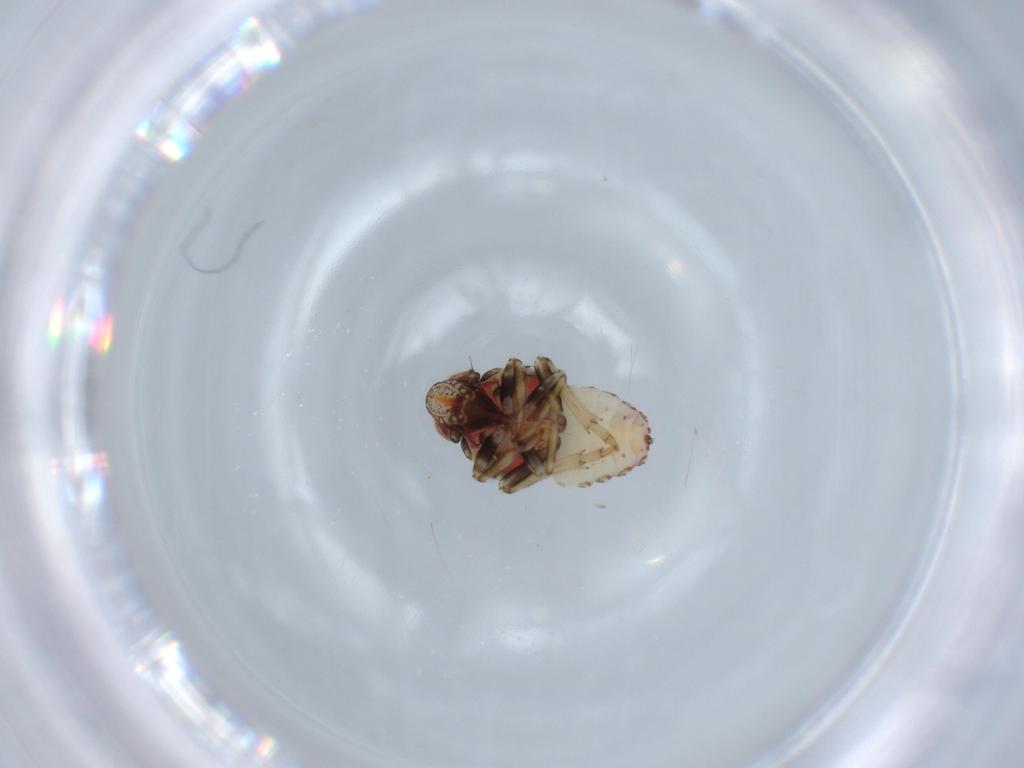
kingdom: Animalia
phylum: Arthropoda
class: Insecta
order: Hemiptera
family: Issidae
